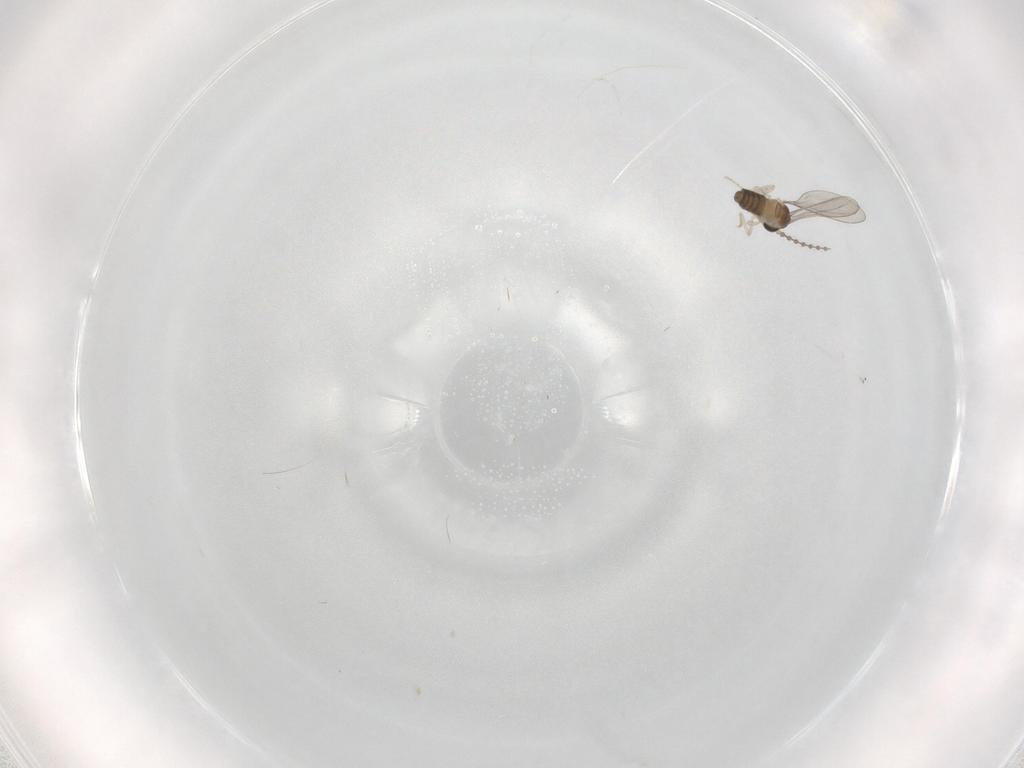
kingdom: Animalia
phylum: Arthropoda
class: Insecta
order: Diptera
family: Cecidomyiidae
